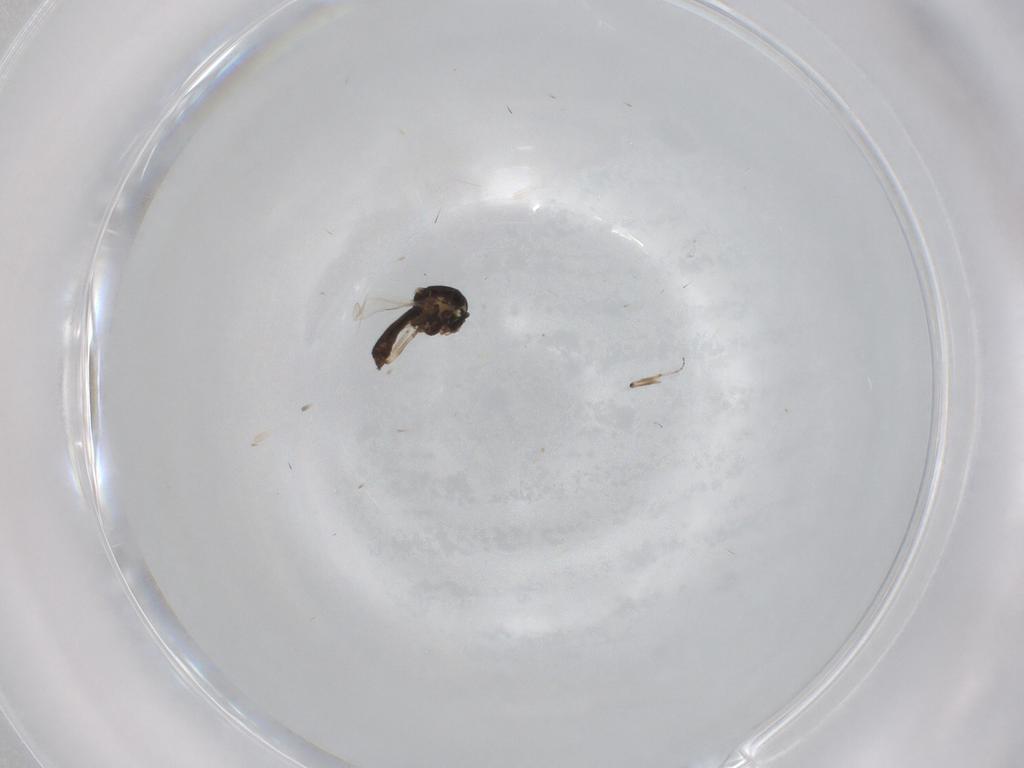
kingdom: Animalia
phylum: Arthropoda
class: Insecta
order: Diptera
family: Ceratopogonidae
